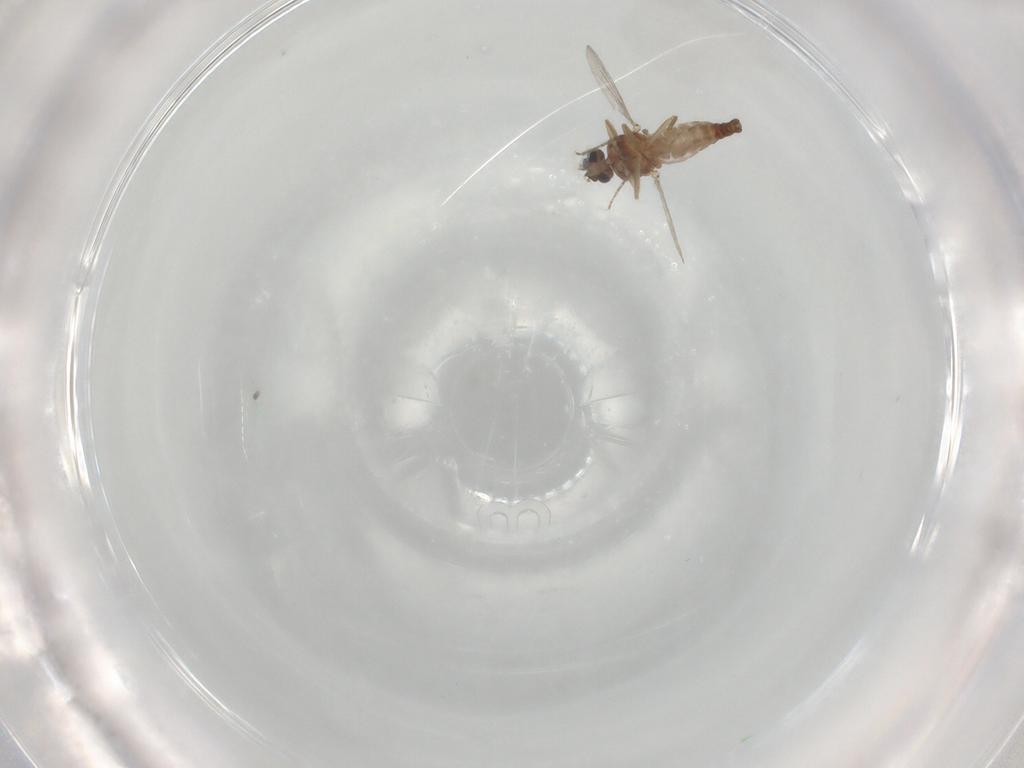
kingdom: Animalia
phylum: Arthropoda
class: Insecta
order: Diptera
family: Ceratopogonidae
